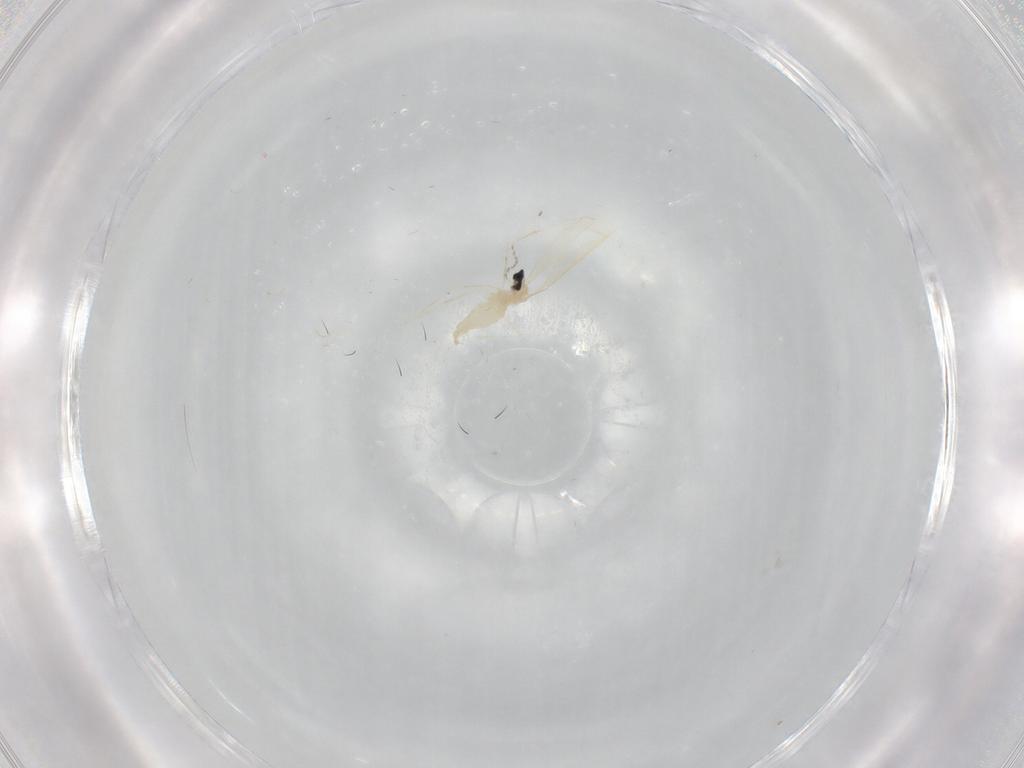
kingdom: Animalia
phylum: Arthropoda
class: Insecta
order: Diptera
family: Cecidomyiidae
